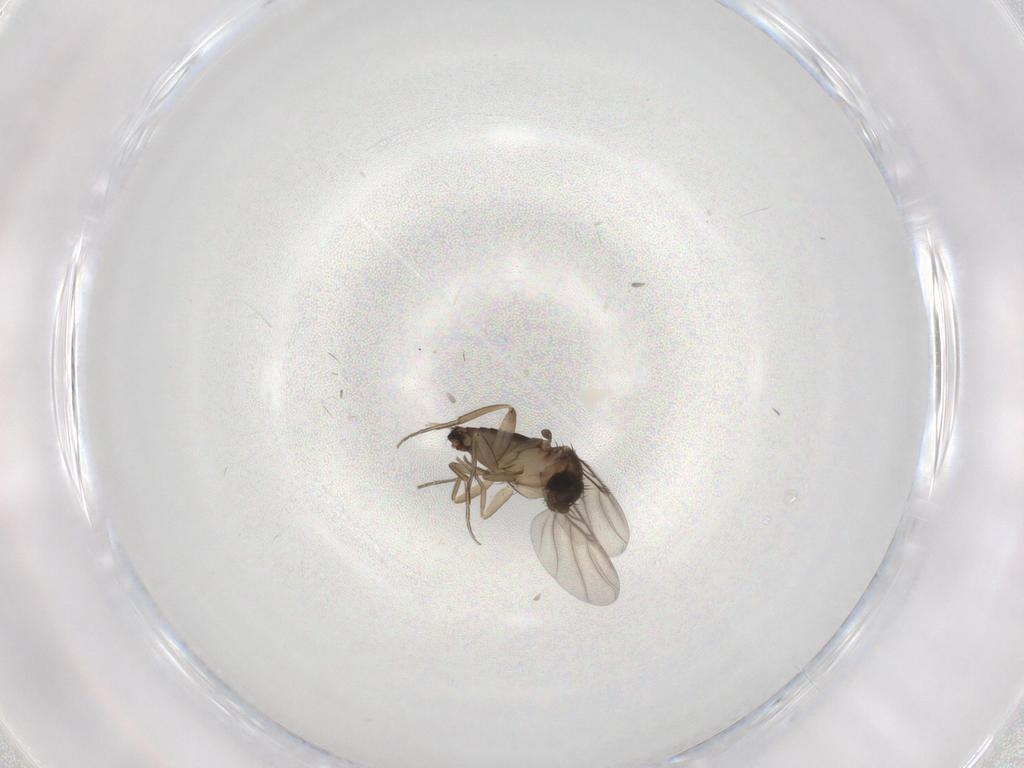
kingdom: Animalia
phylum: Arthropoda
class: Insecta
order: Diptera
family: Phoridae
